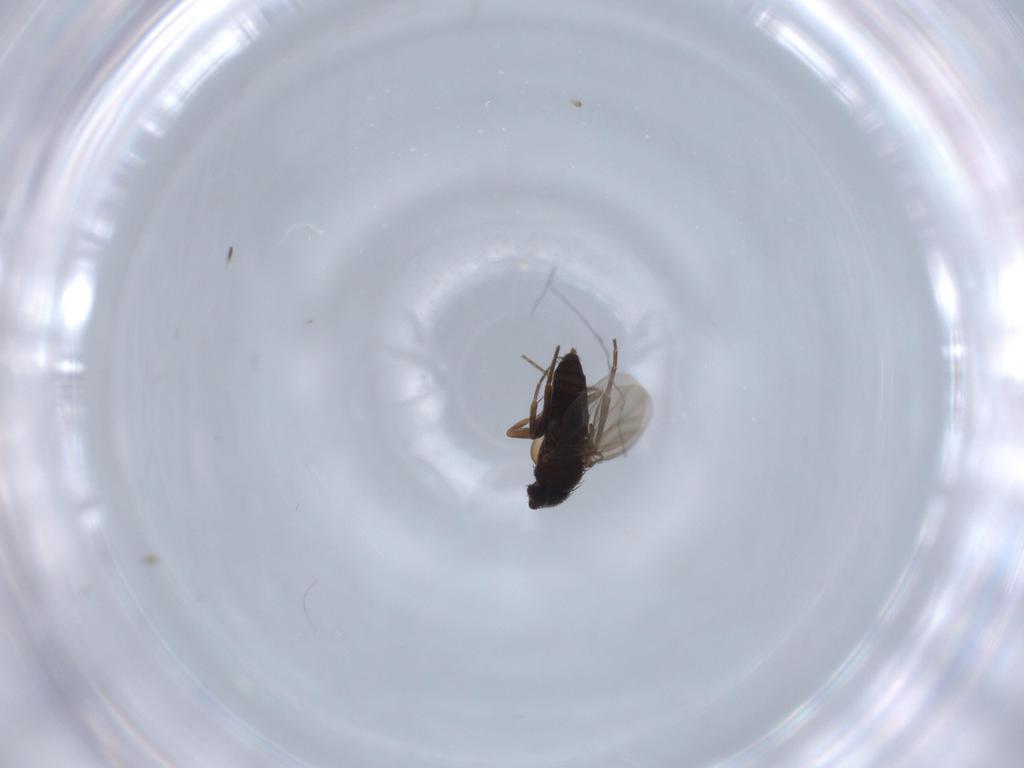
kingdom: Animalia
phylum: Arthropoda
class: Insecta
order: Diptera
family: Phoridae
